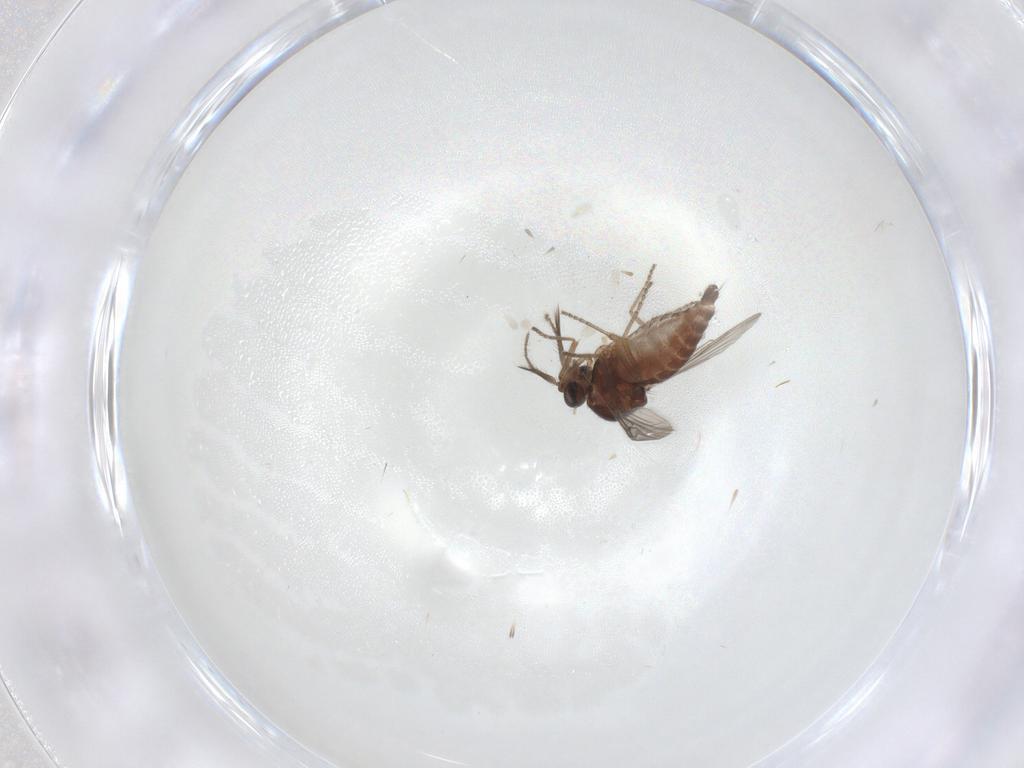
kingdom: Animalia
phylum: Arthropoda
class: Insecta
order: Diptera
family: Ceratopogonidae
